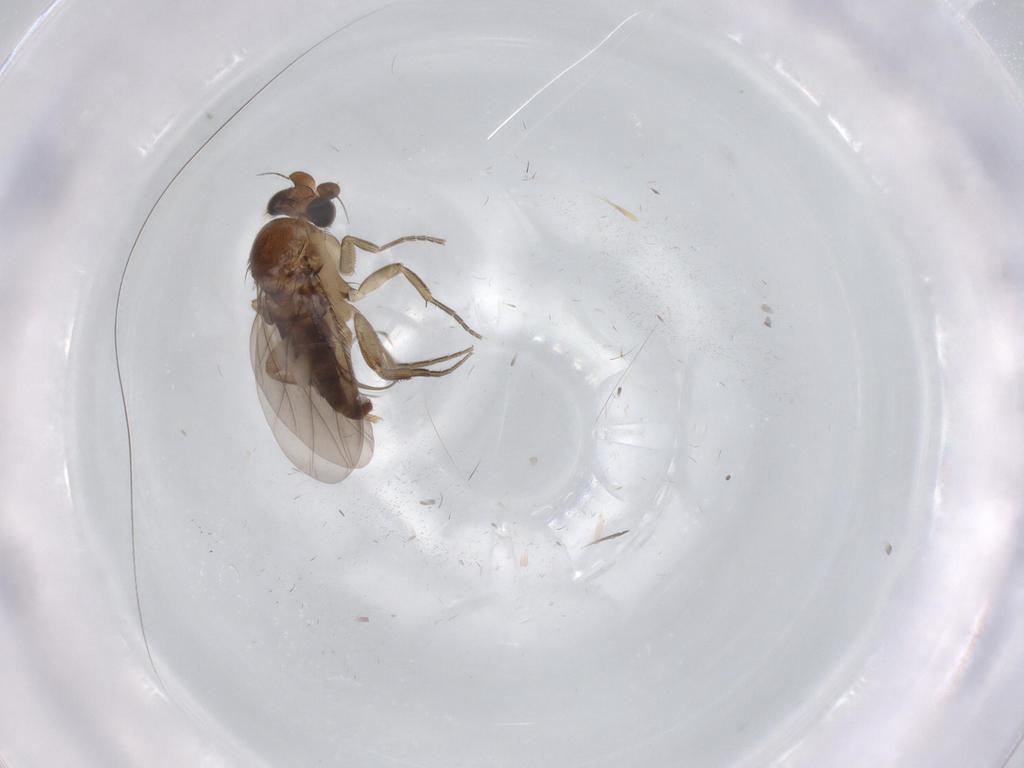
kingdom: Animalia
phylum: Arthropoda
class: Insecta
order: Diptera
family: Phoridae
